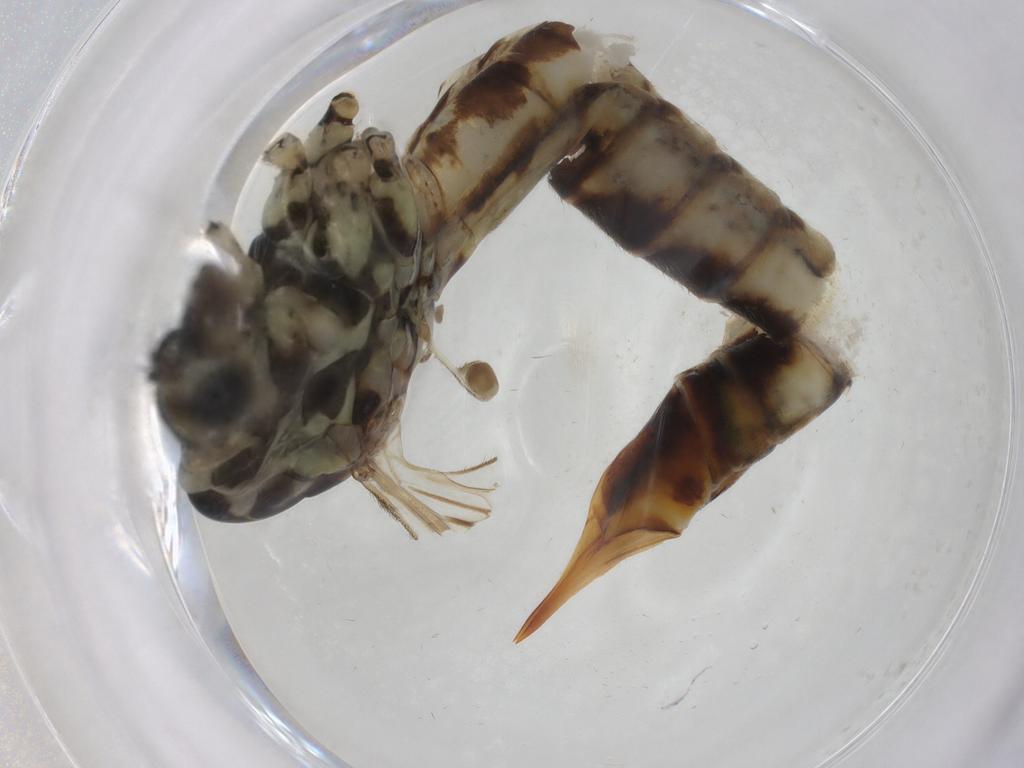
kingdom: Animalia
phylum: Arthropoda
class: Insecta
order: Diptera
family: Tipulidae
